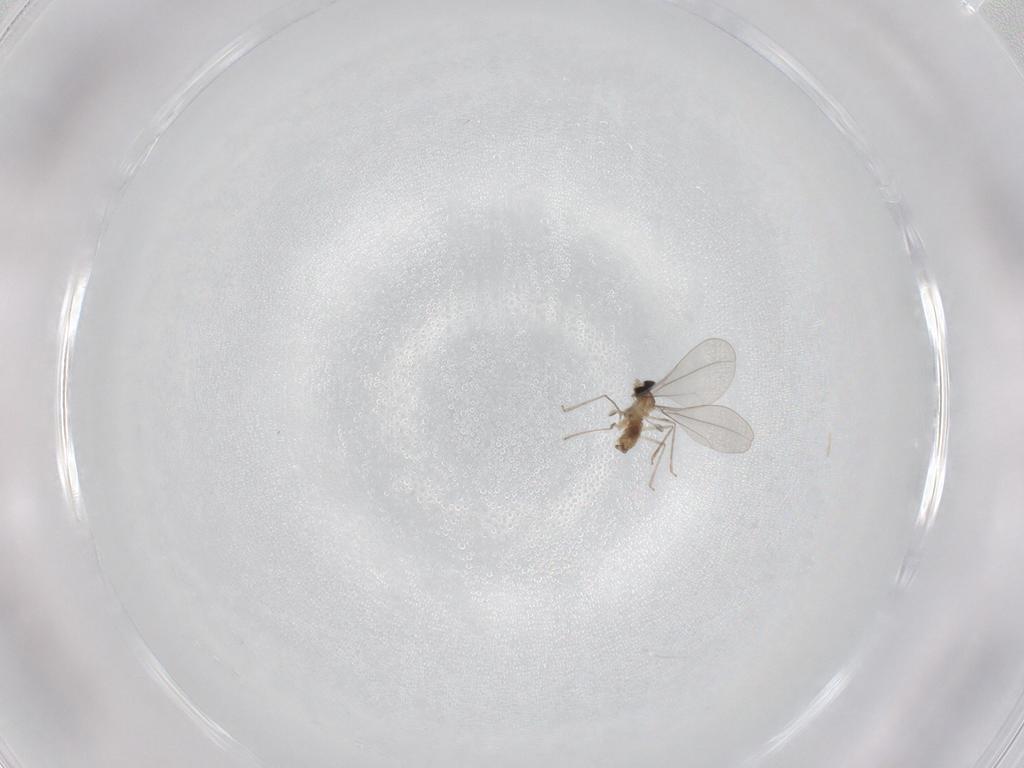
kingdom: Animalia
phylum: Arthropoda
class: Insecta
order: Diptera
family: Cecidomyiidae
